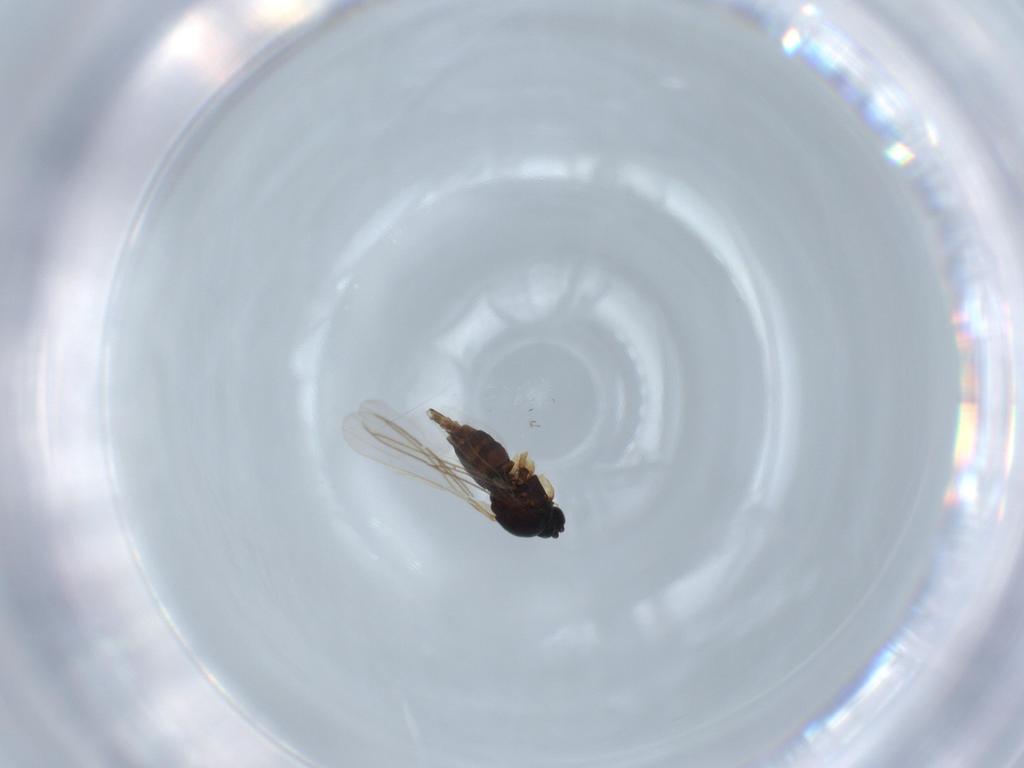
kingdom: Animalia
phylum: Arthropoda
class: Insecta
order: Diptera
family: Sciaridae
